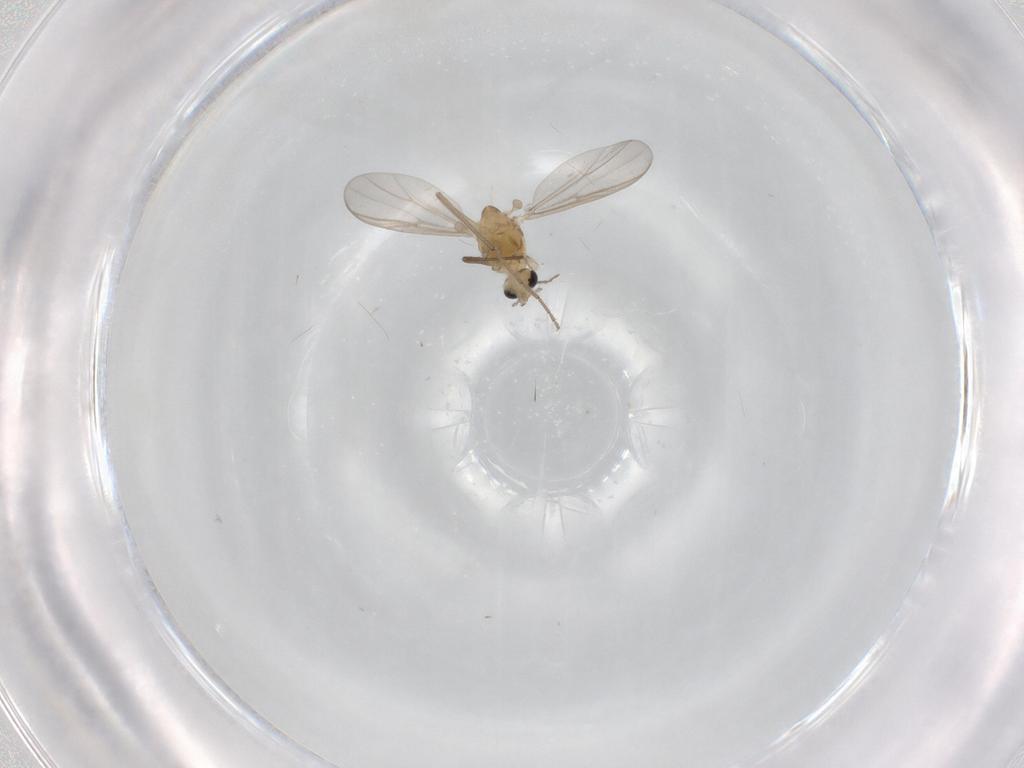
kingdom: Animalia
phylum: Arthropoda
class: Insecta
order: Diptera
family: Chironomidae
